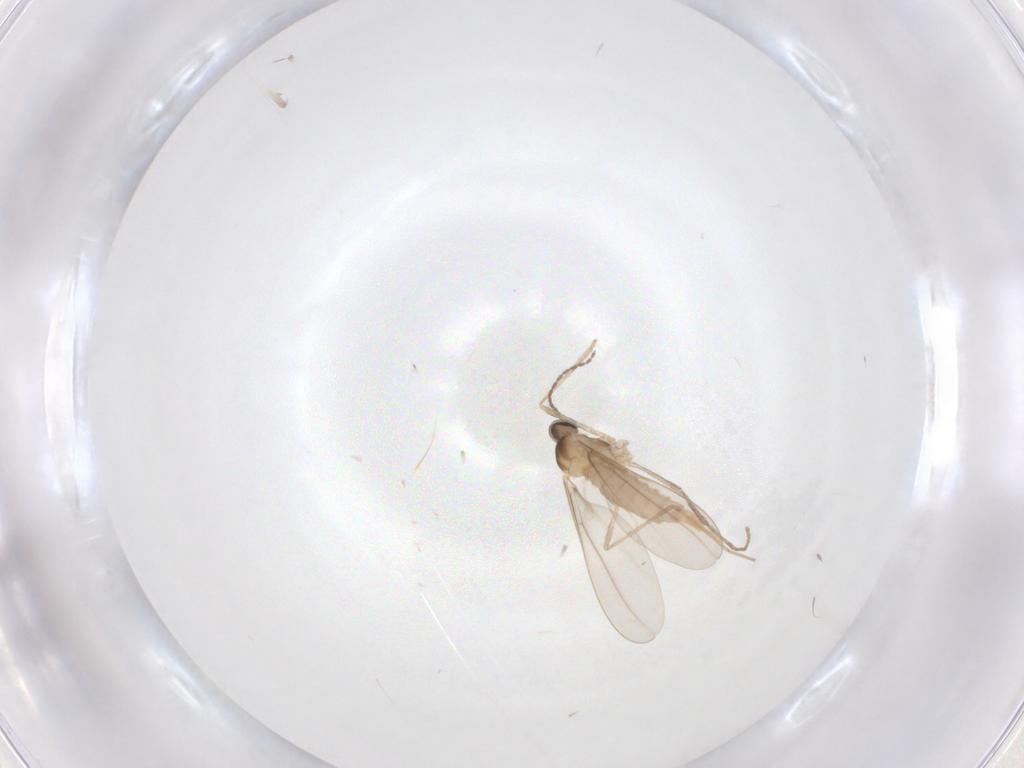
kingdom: Animalia
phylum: Arthropoda
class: Insecta
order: Diptera
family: Cecidomyiidae
